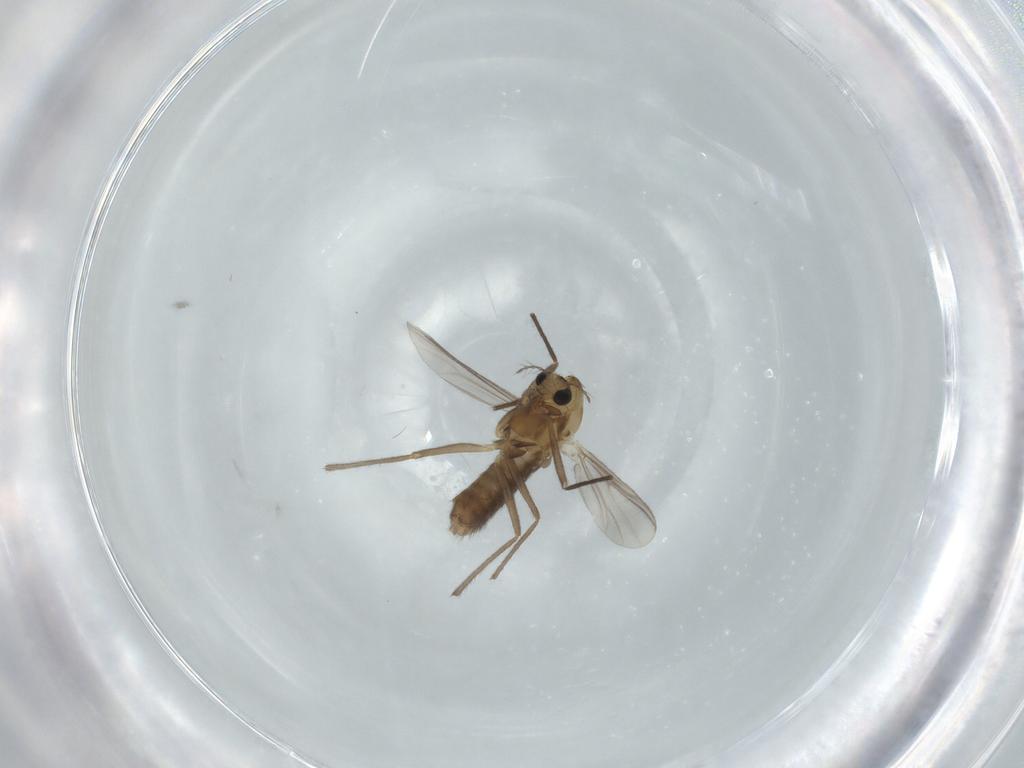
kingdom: Animalia
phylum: Arthropoda
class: Insecta
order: Diptera
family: Chironomidae
